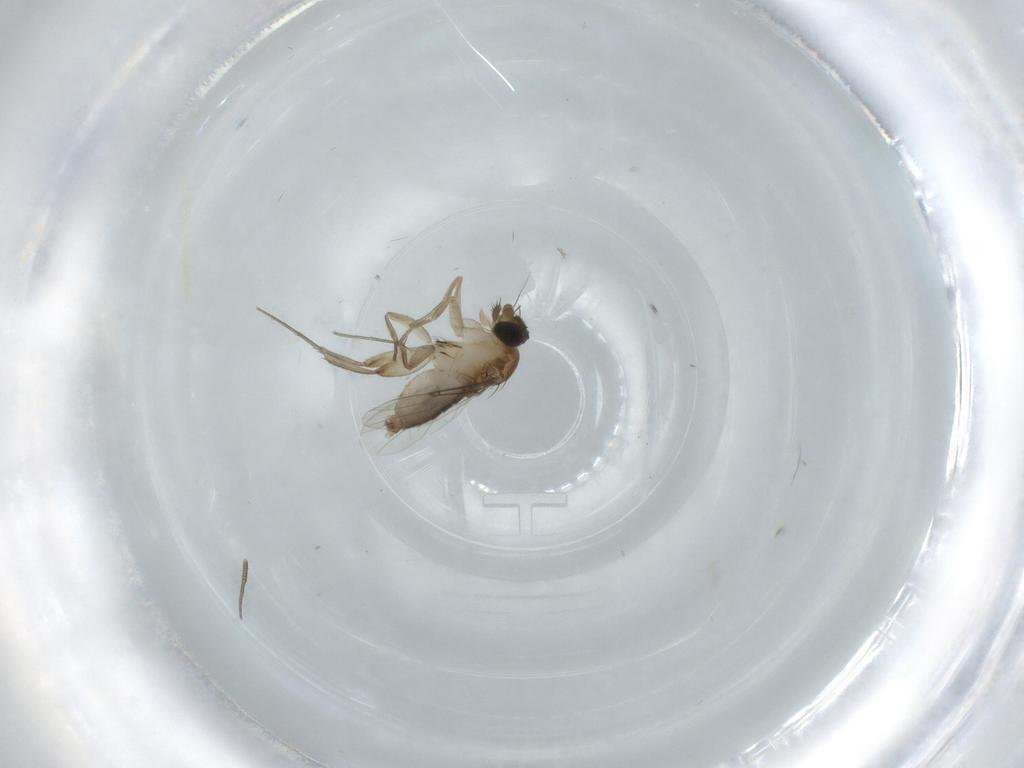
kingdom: Animalia
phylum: Arthropoda
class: Insecta
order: Diptera
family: Phoridae
